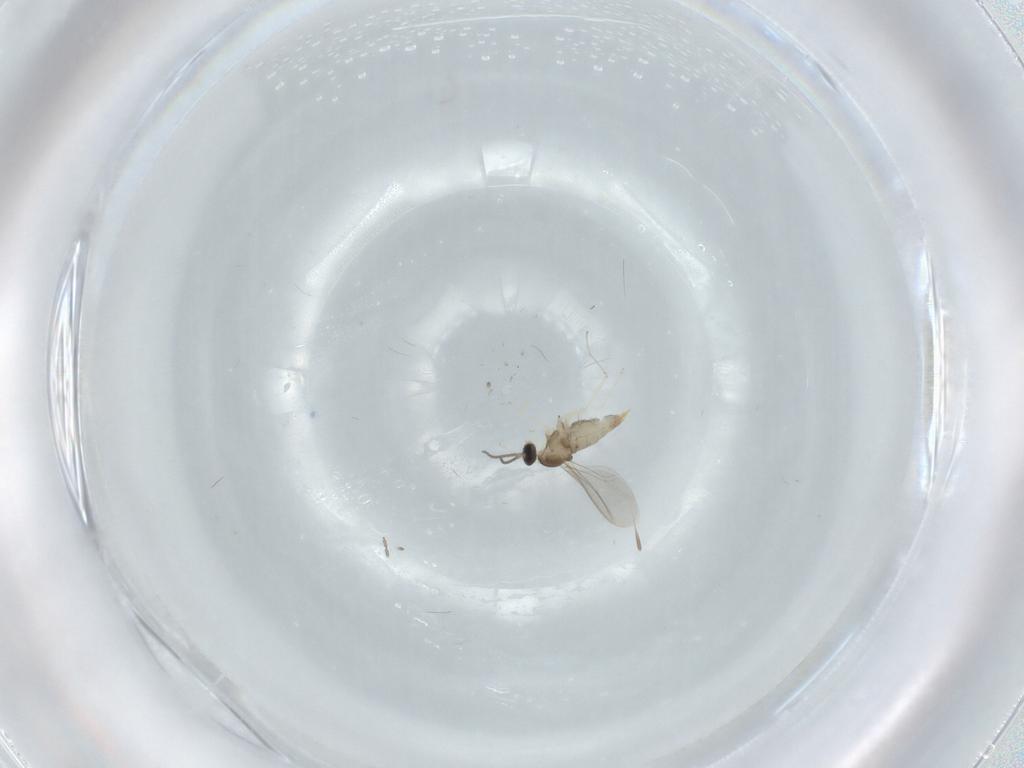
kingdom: Animalia
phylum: Arthropoda
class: Insecta
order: Diptera
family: Cecidomyiidae
